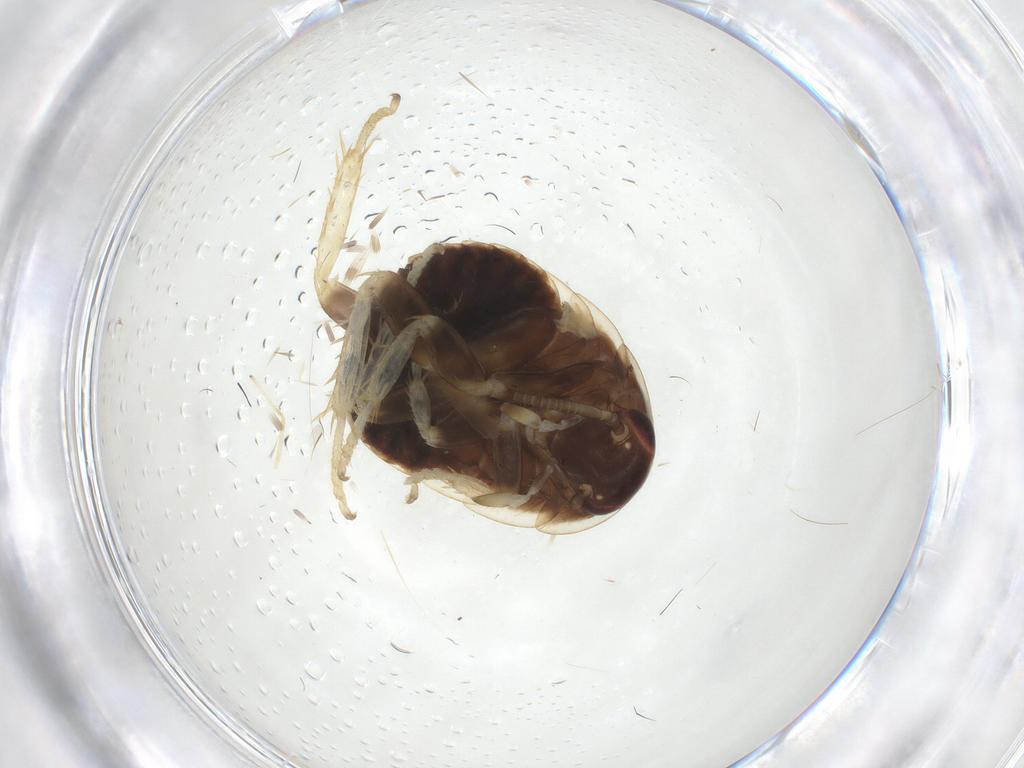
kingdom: Animalia
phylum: Arthropoda
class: Insecta
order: Blattodea
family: Ectobiidae
